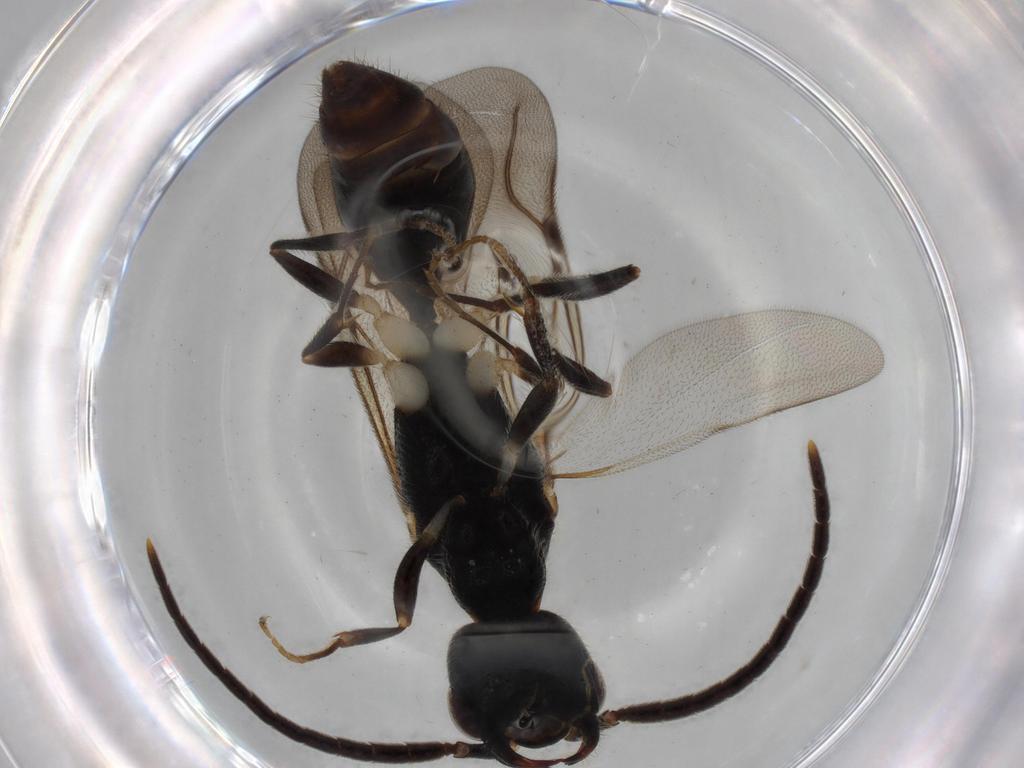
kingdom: Animalia
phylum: Arthropoda
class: Insecta
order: Hymenoptera
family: Bethylidae
